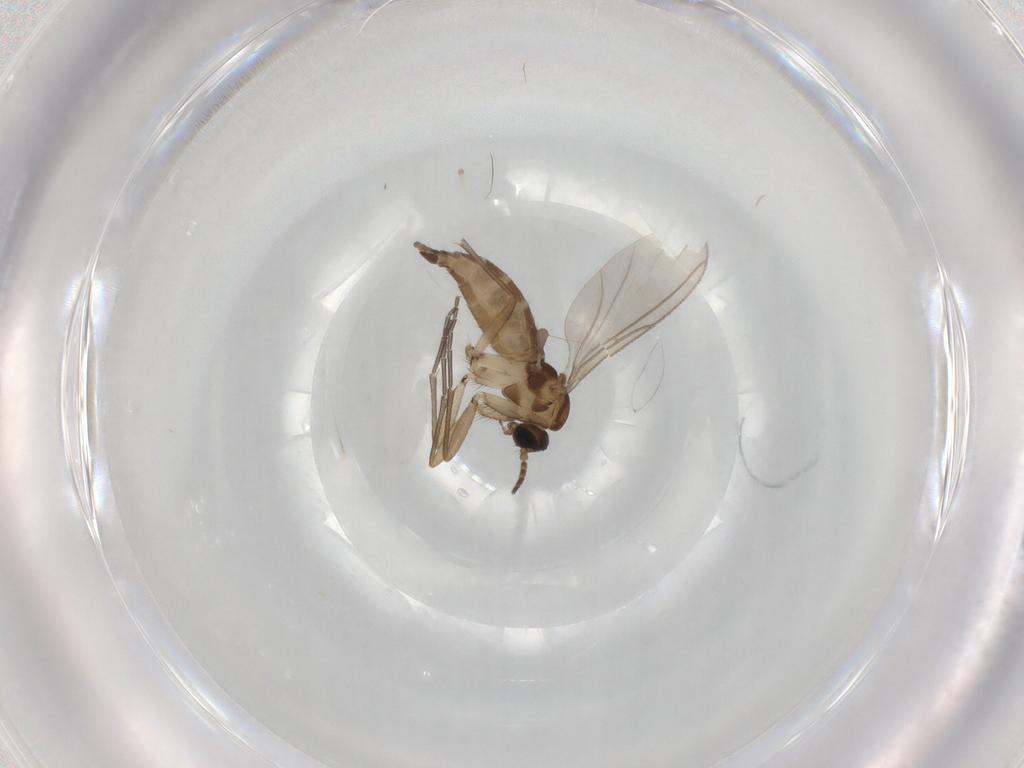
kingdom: Animalia
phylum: Arthropoda
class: Insecta
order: Diptera
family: Sciaridae
